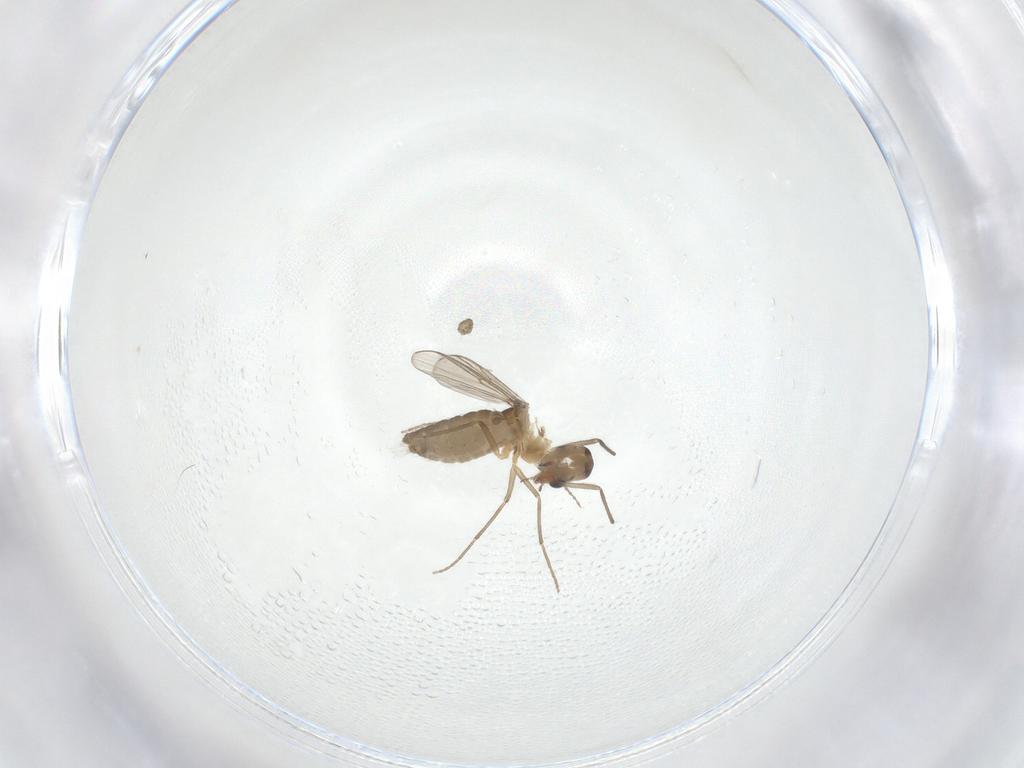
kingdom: Animalia
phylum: Arthropoda
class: Insecta
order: Diptera
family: Chironomidae
